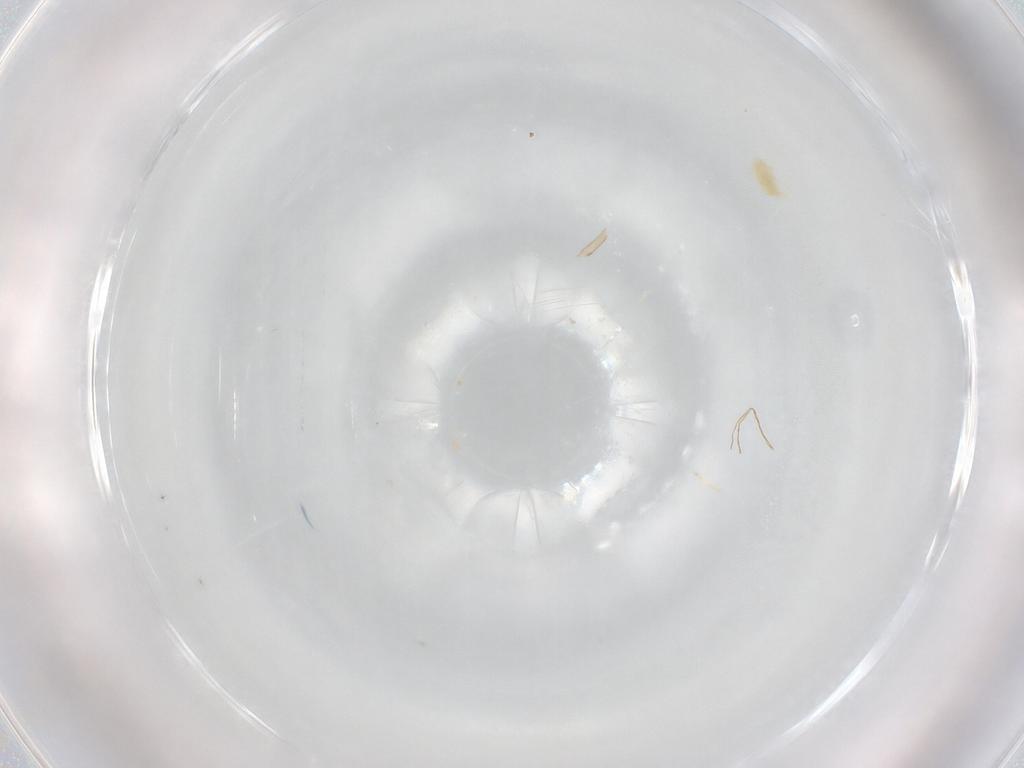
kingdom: Animalia
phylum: Arthropoda
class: Arachnida
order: Trombidiformes
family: Eupodidae
